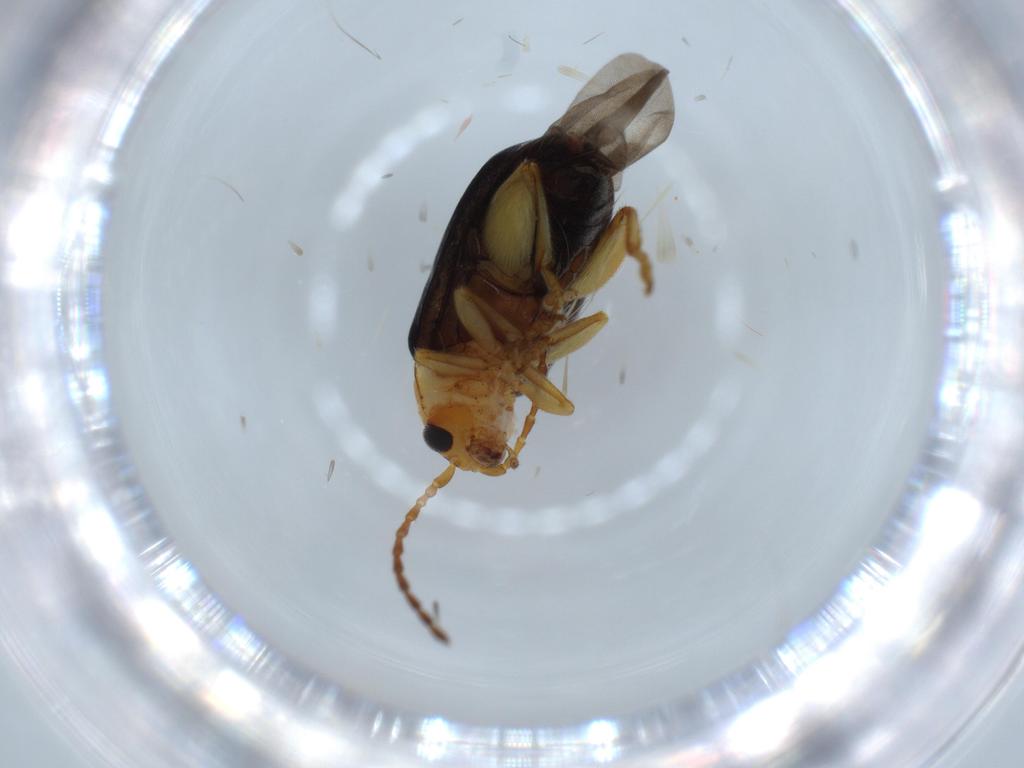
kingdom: Animalia
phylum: Arthropoda
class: Insecta
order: Coleoptera
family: Chrysomelidae
